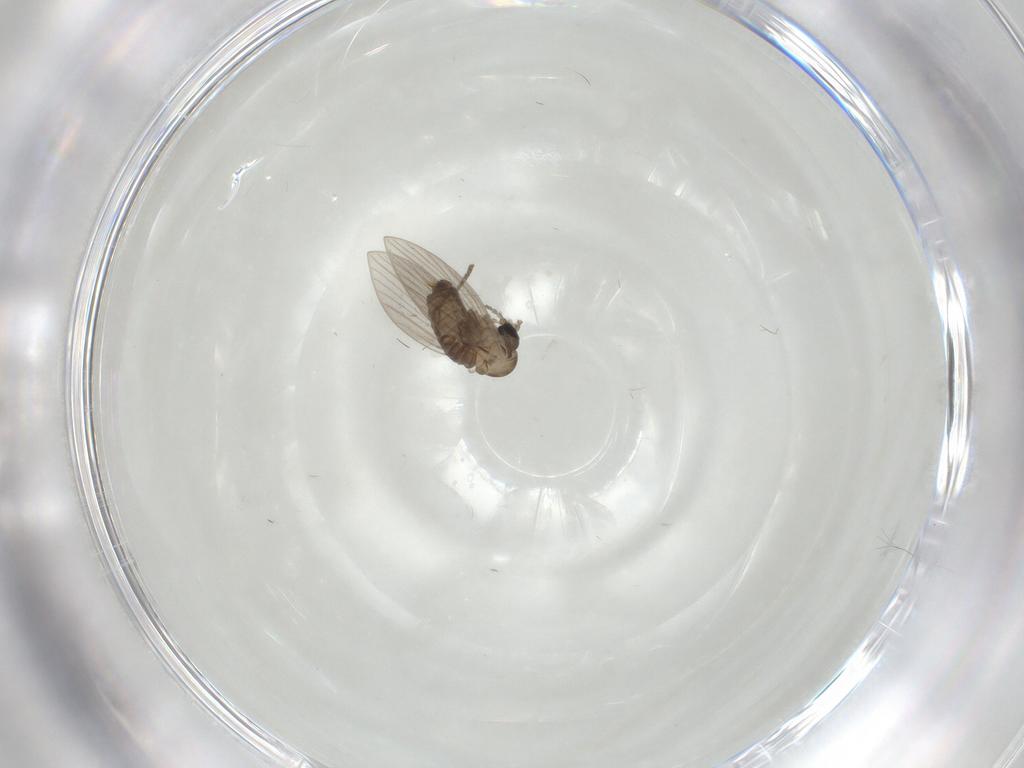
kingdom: Animalia
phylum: Arthropoda
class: Insecta
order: Diptera
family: Psychodidae
